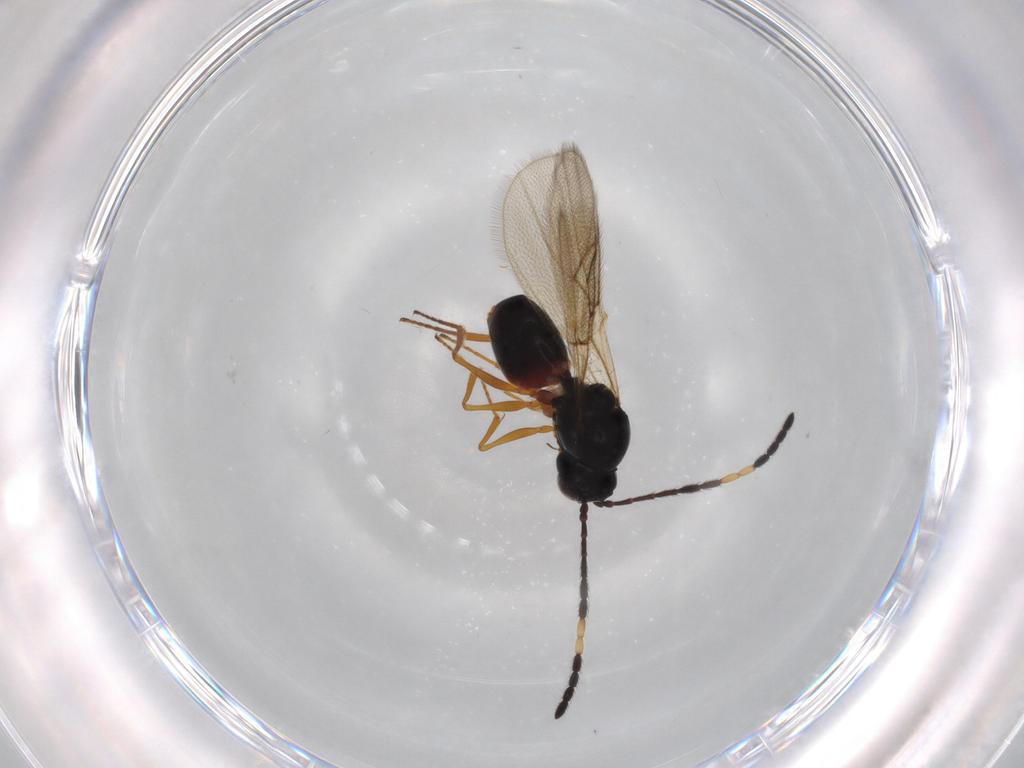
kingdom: Animalia
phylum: Arthropoda
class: Insecta
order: Hymenoptera
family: Figitidae
